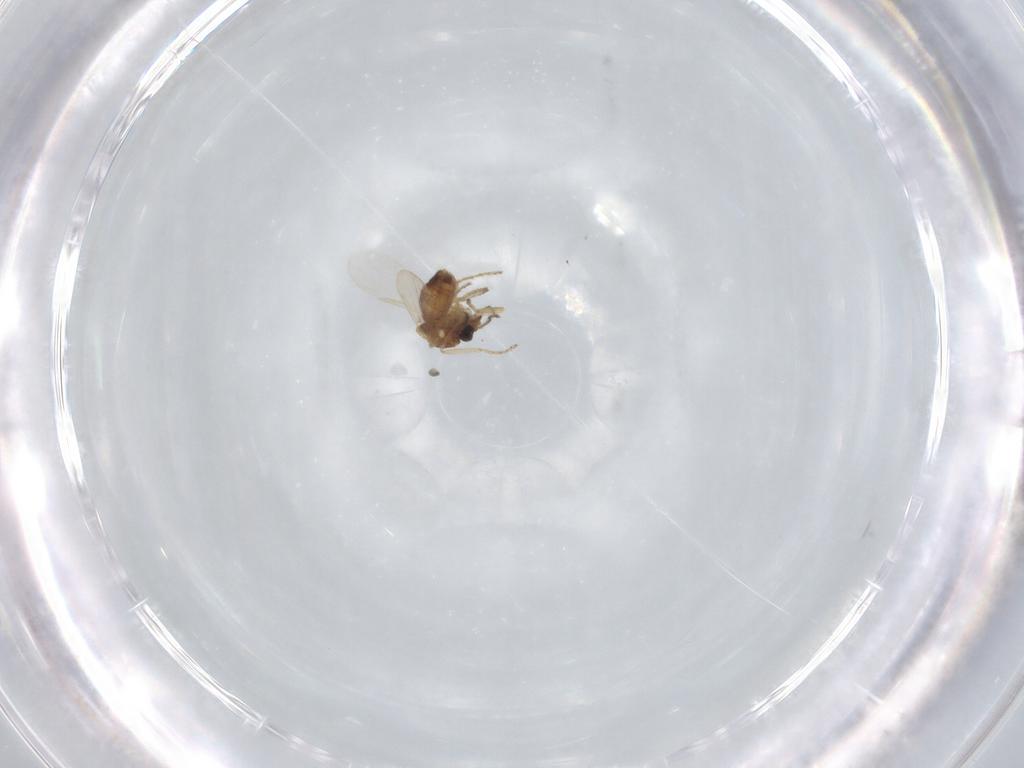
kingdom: Animalia
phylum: Arthropoda
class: Insecta
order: Diptera
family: Ceratopogonidae
